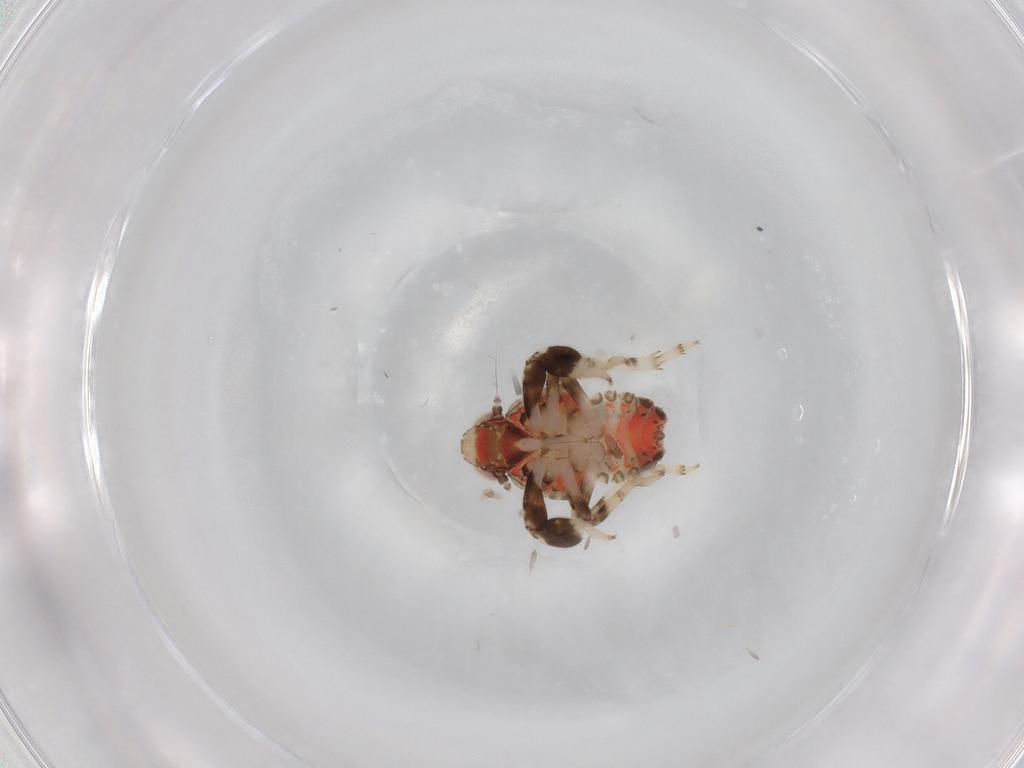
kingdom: Animalia
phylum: Arthropoda
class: Insecta
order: Hemiptera
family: Issidae
